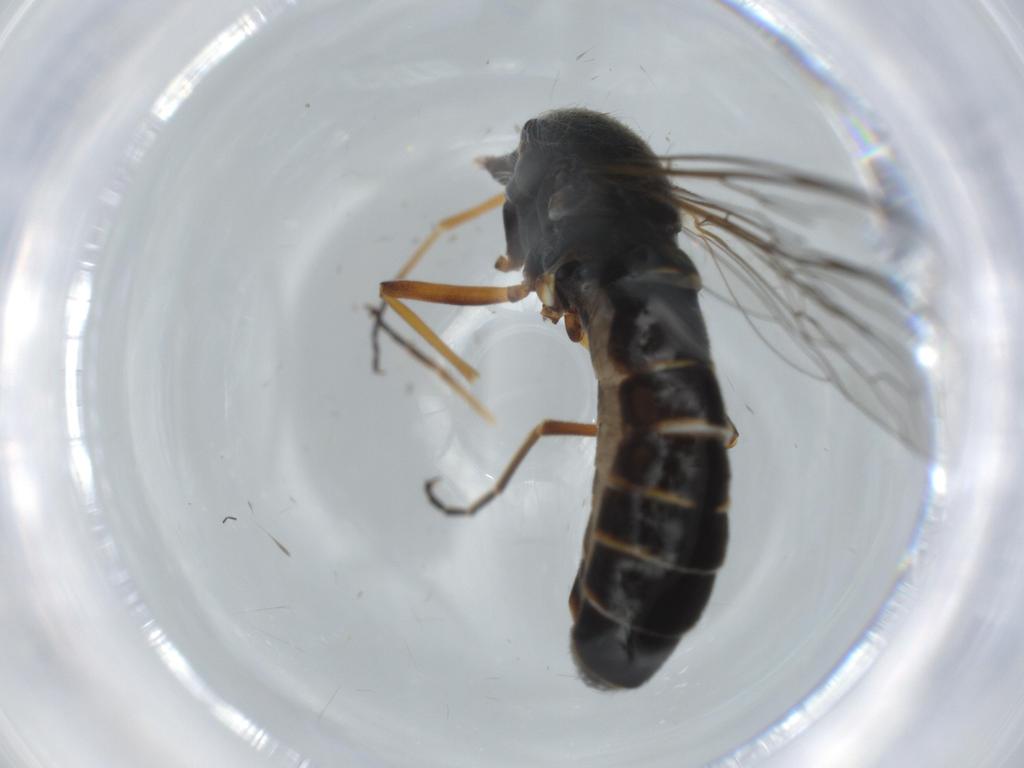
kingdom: Animalia
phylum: Arthropoda
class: Insecta
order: Diptera
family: Bombyliidae
